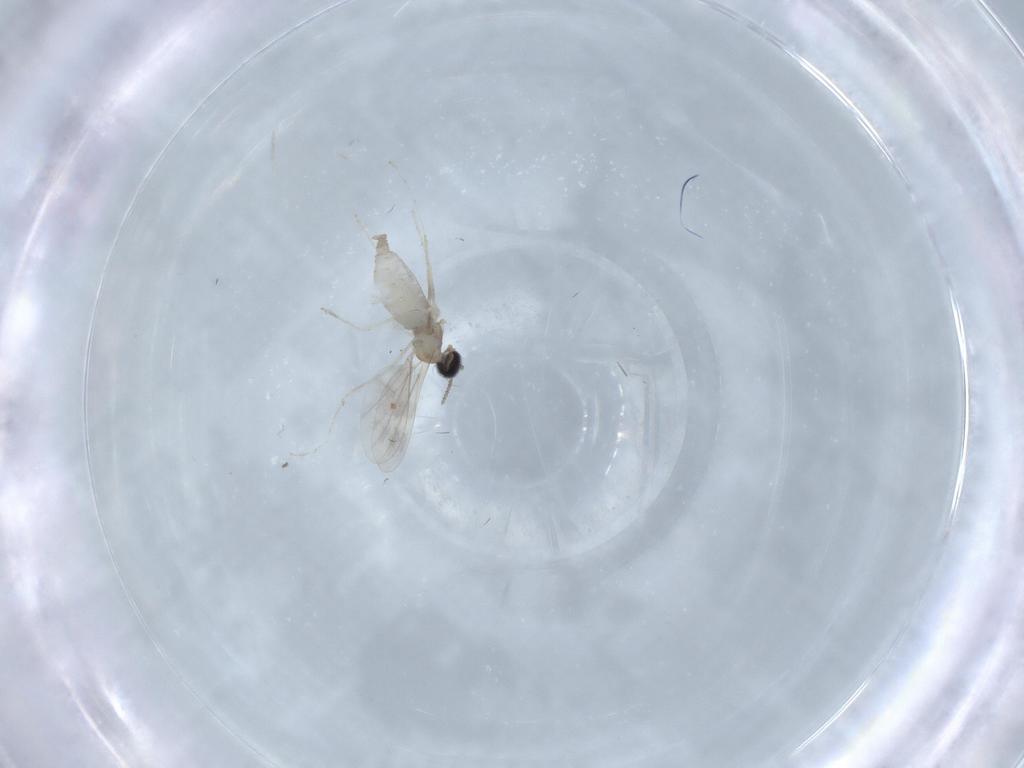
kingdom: Animalia
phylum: Arthropoda
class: Insecta
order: Diptera
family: Cecidomyiidae
